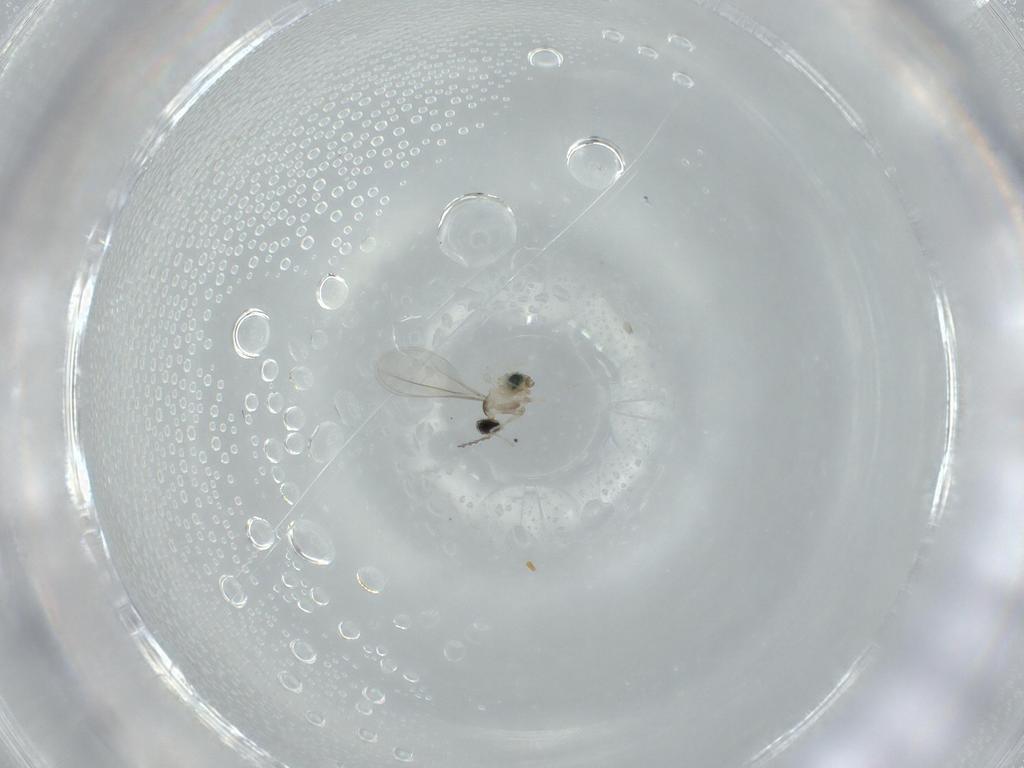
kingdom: Animalia
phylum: Arthropoda
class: Insecta
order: Diptera
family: Cecidomyiidae
